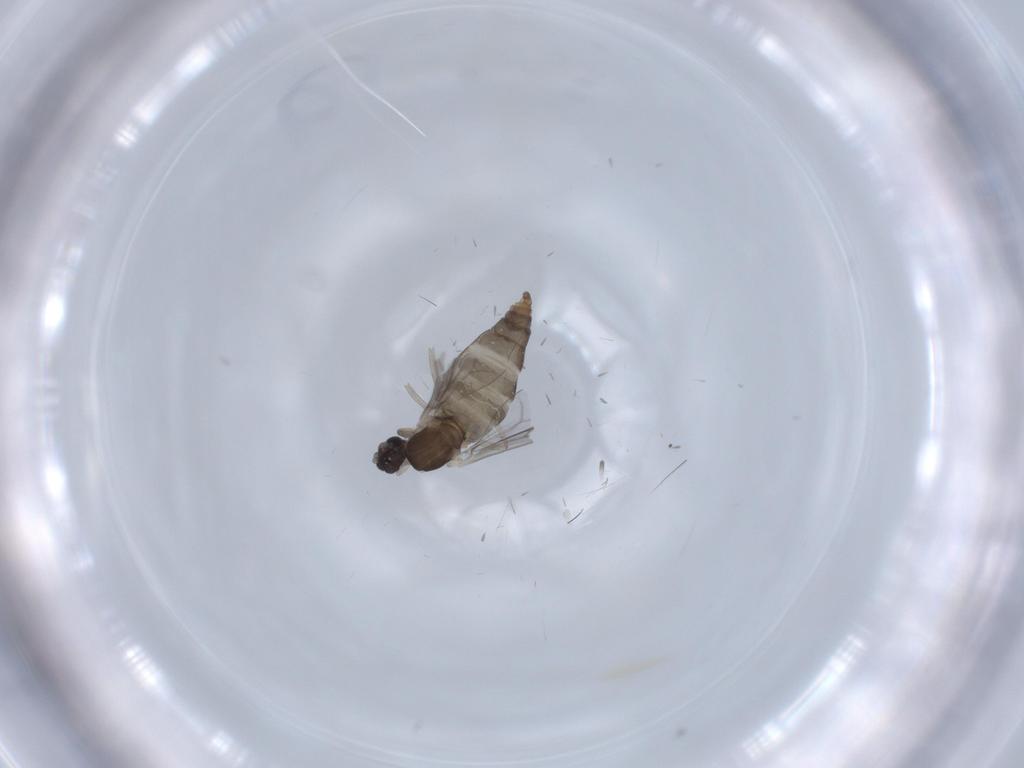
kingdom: Animalia
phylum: Arthropoda
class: Insecta
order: Diptera
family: Cecidomyiidae
